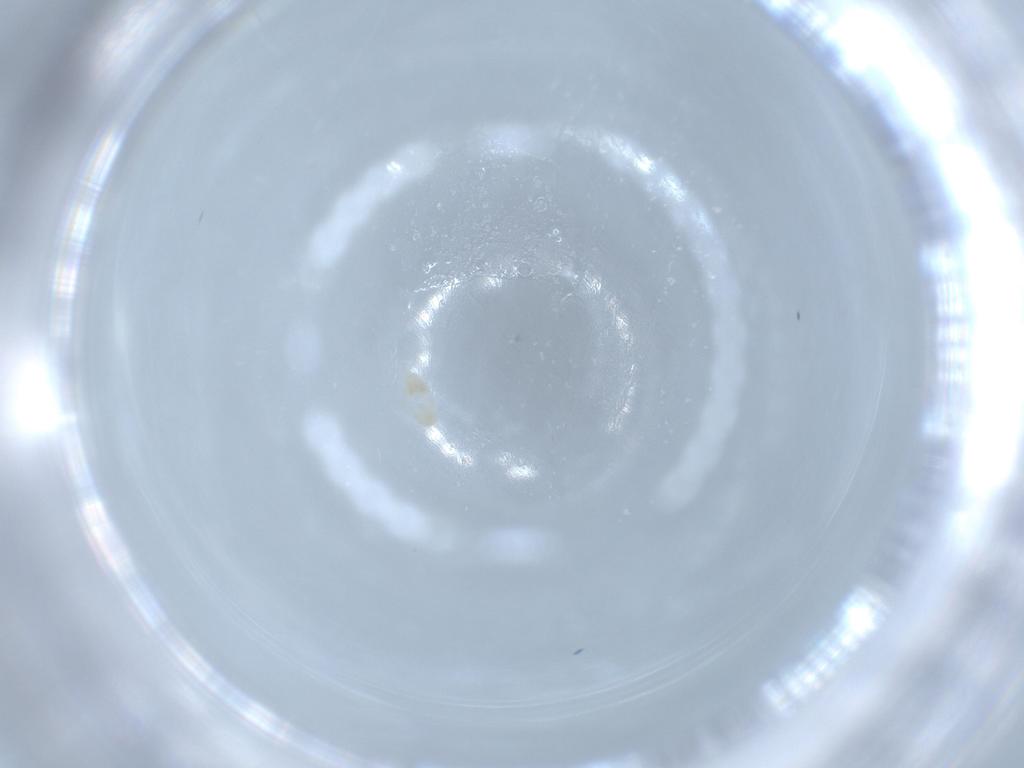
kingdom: Animalia
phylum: Arthropoda
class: Arachnida
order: Trombidiformes
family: Eupodidae
